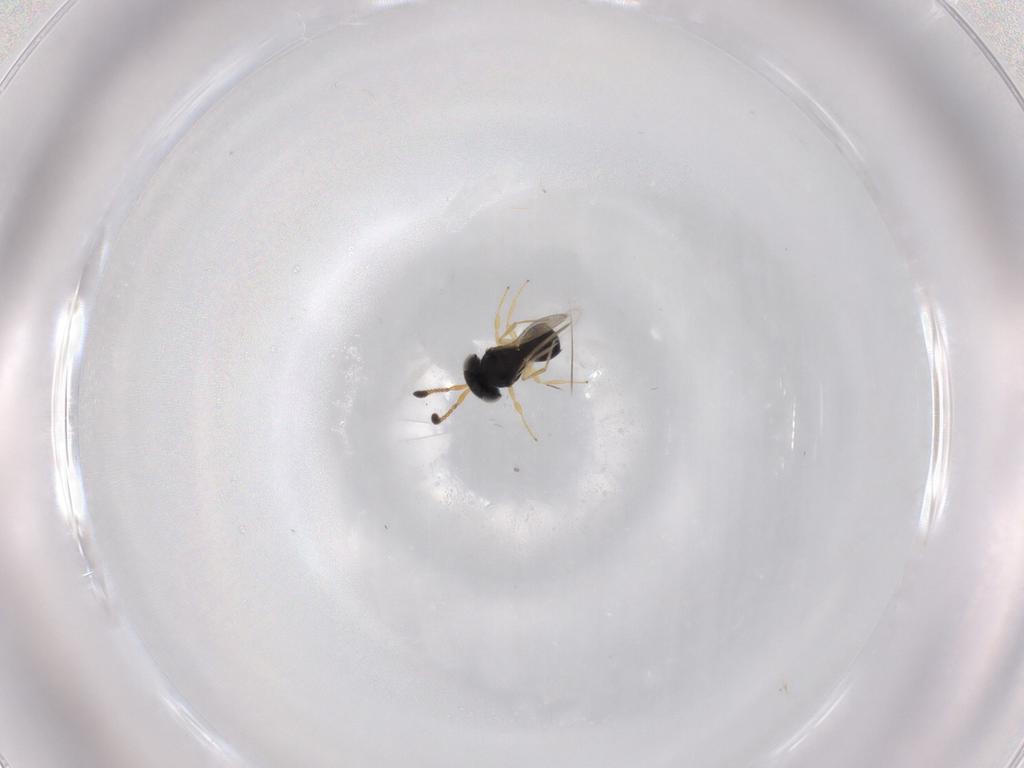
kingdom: Animalia
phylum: Arthropoda
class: Insecta
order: Hymenoptera
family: Scelionidae
